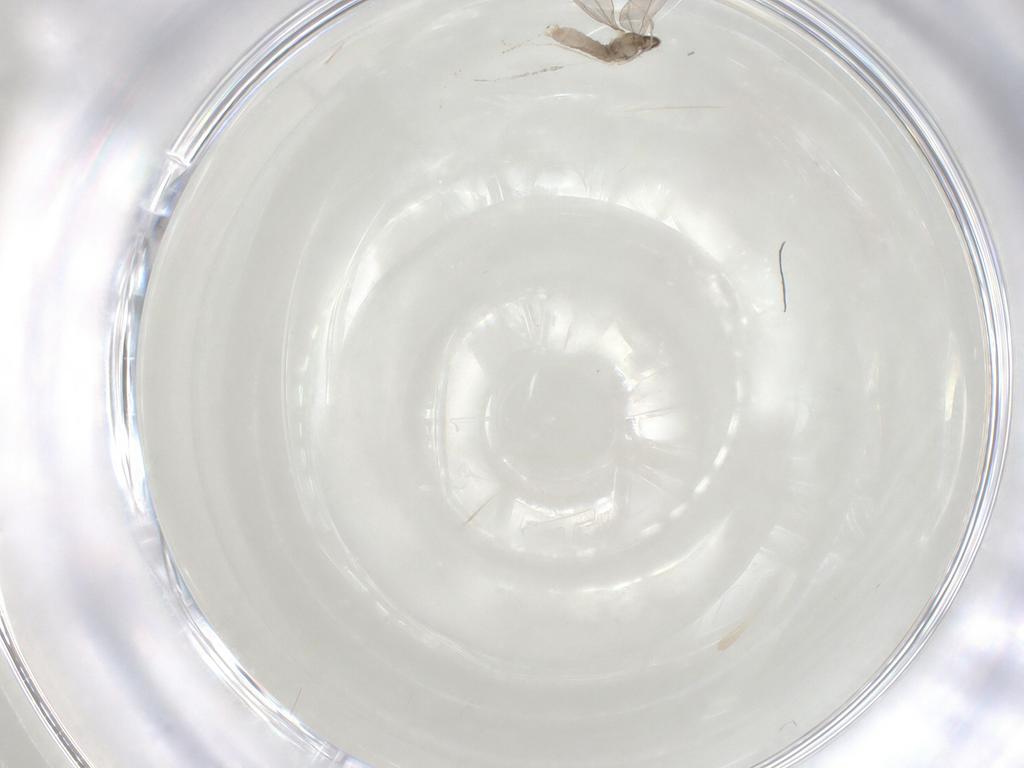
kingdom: Animalia
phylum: Arthropoda
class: Insecta
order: Diptera
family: Cecidomyiidae
